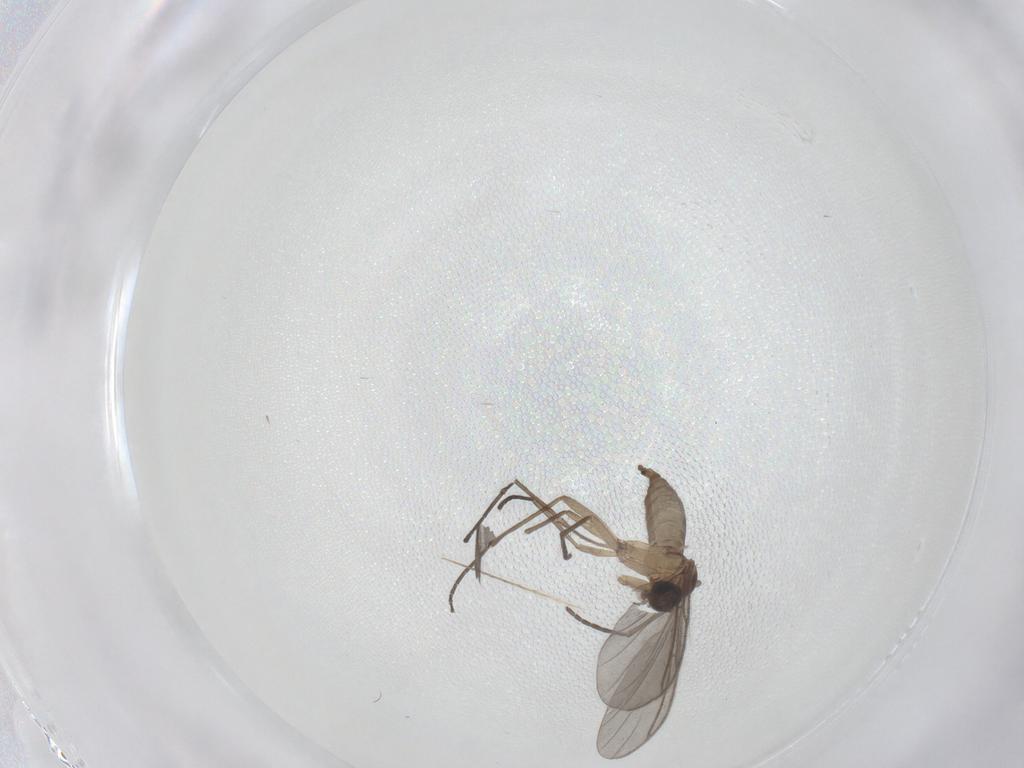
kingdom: Animalia
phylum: Arthropoda
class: Insecta
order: Diptera
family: Sciaridae
